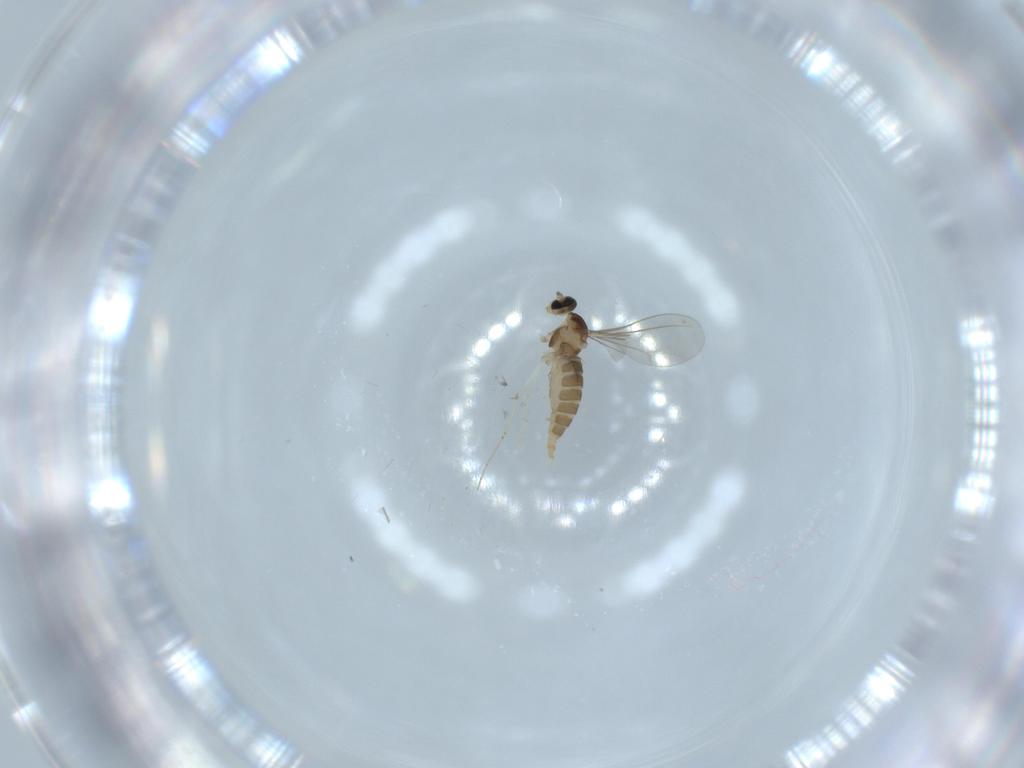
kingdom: Animalia
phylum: Arthropoda
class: Insecta
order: Diptera
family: Cecidomyiidae
